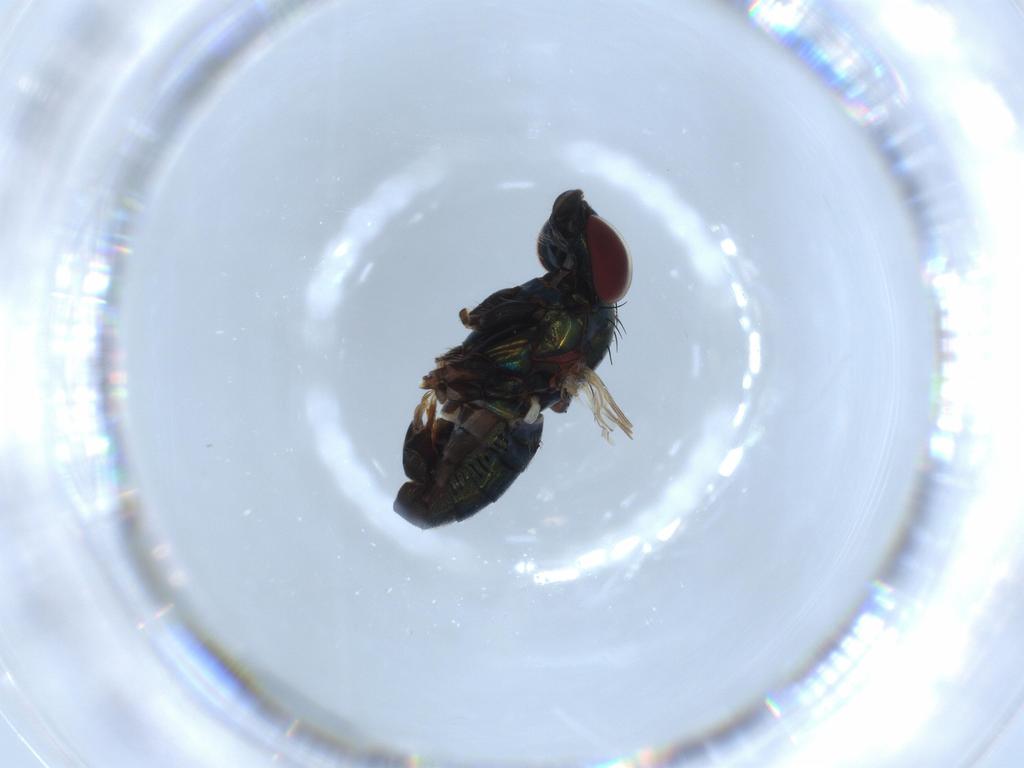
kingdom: Animalia
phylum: Arthropoda
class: Insecta
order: Diptera
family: Dolichopodidae
